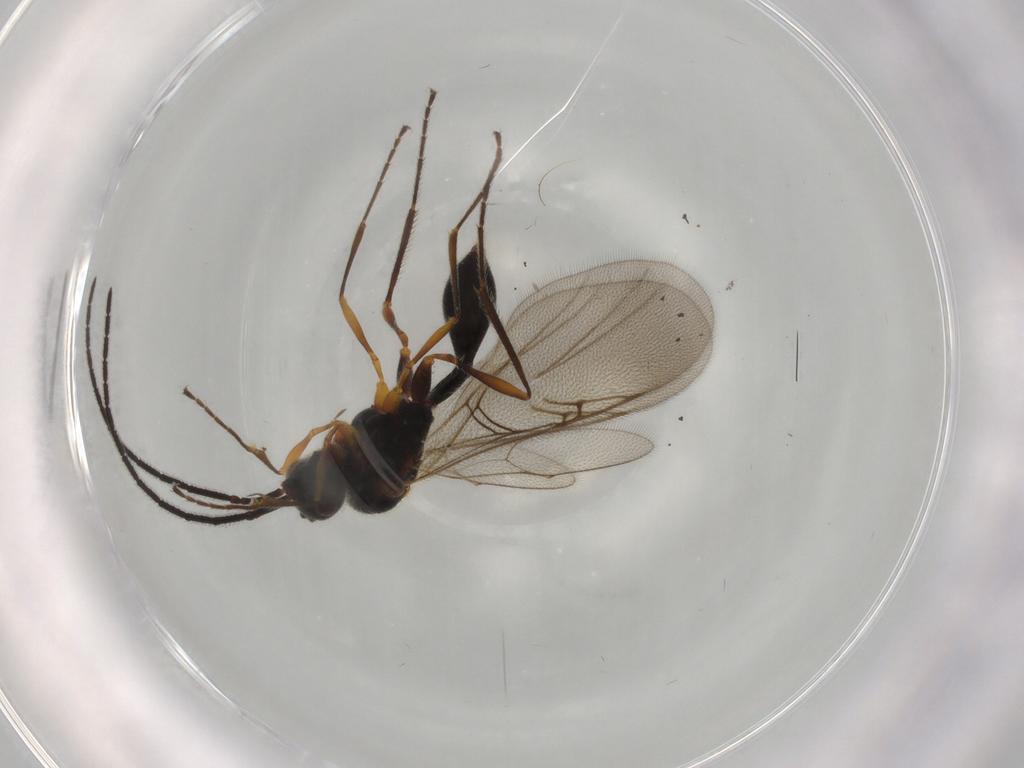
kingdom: Animalia
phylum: Arthropoda
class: Insecta
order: Hymenoptera
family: Diapriidae
